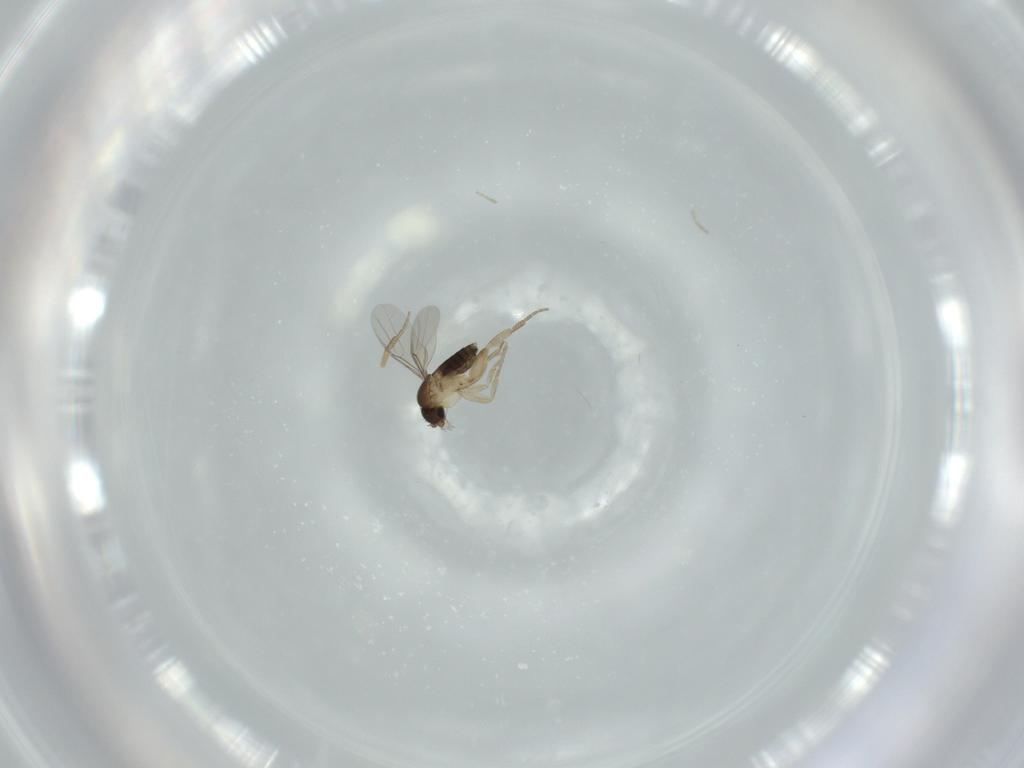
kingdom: Animalia
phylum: Arthropoda
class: Insecta
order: Diptera
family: Phoridae
